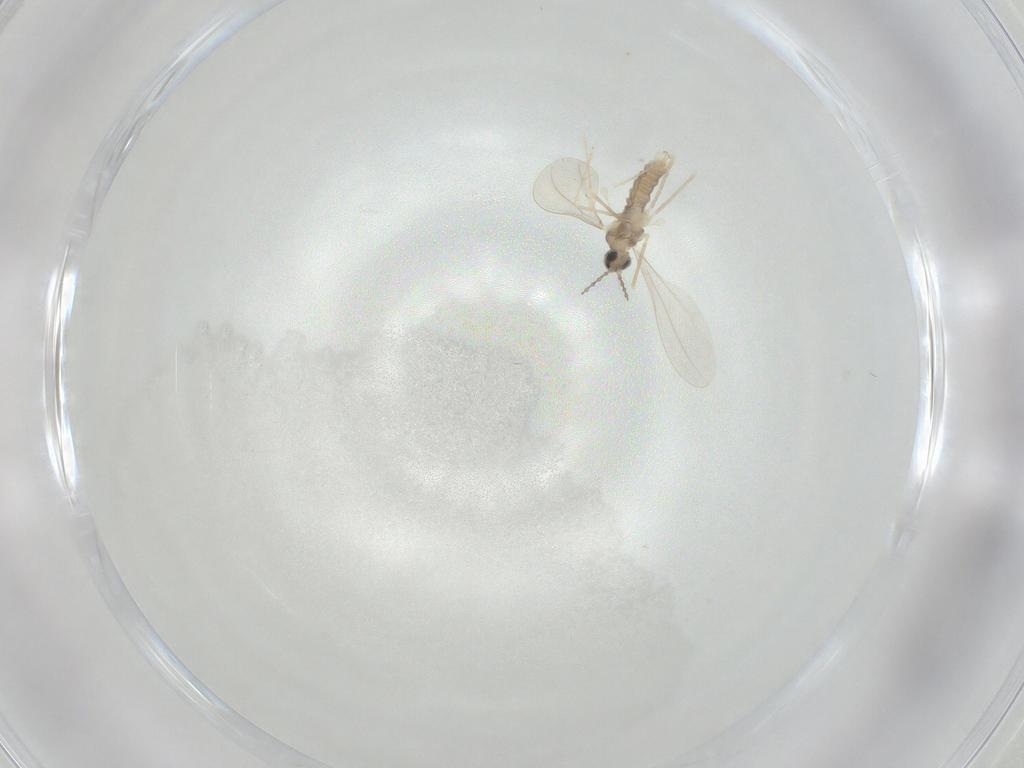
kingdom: Animalia
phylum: Arthropoda
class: Insecta
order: Diptera
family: Cecidomyiidae
